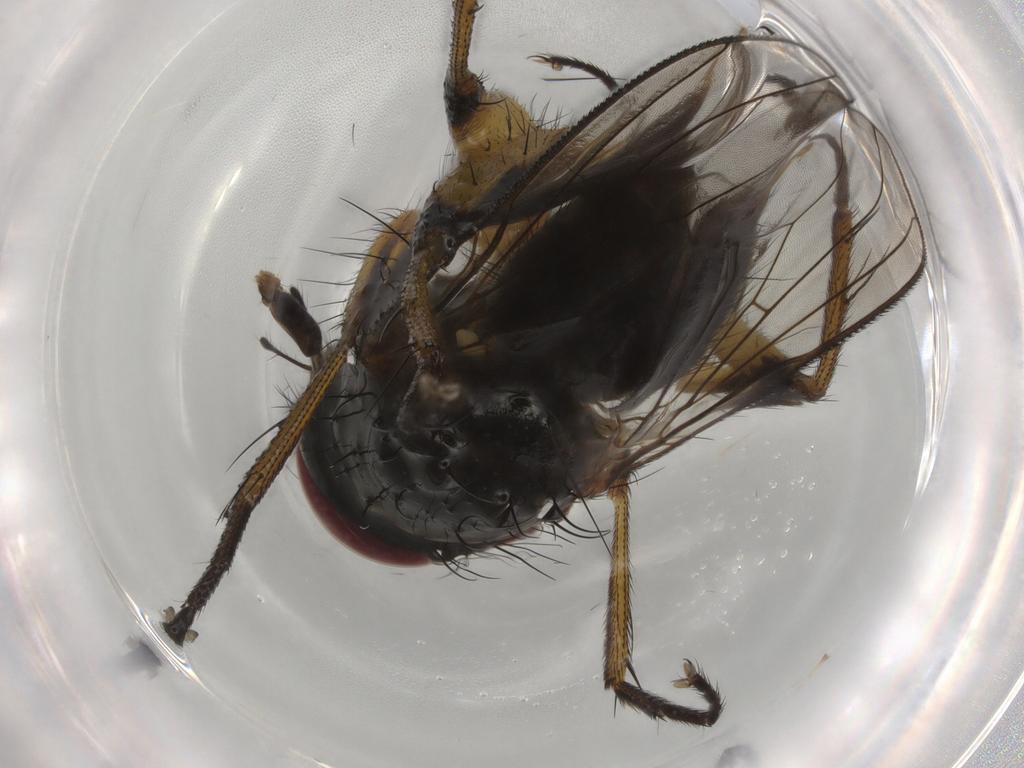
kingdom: Animalia
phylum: Arthropoda
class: Insecta
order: Diptera
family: Muscidae
